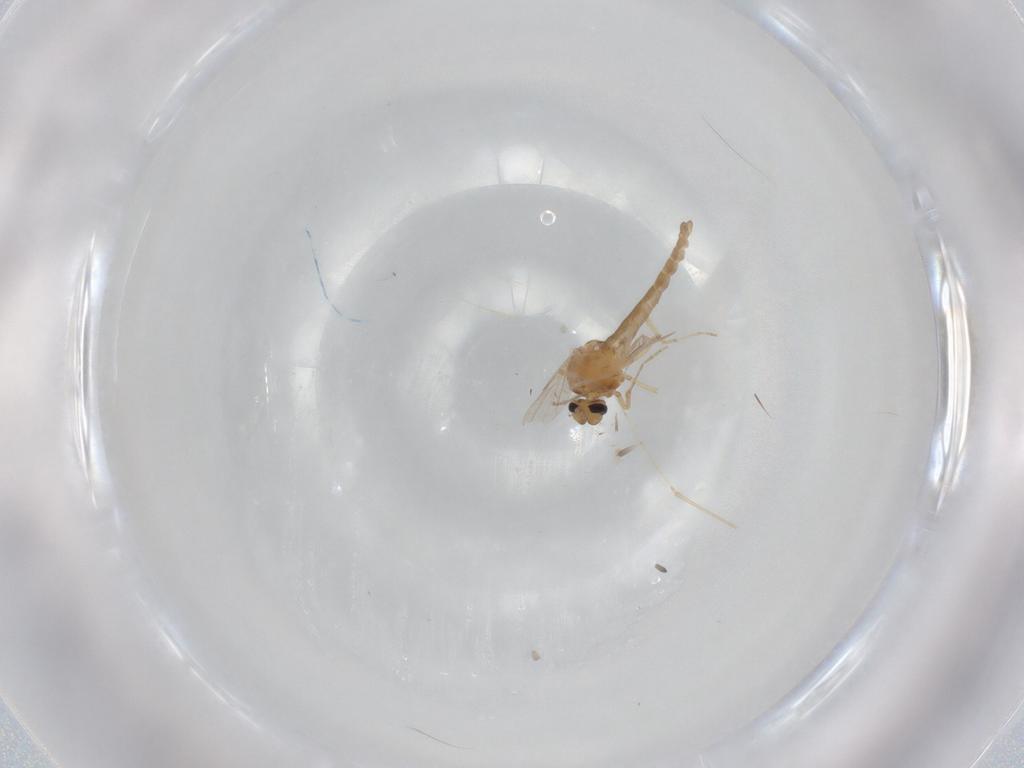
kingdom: Animalia
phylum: Arthropoda
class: Insecta
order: Diptera
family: Ceratopogonidae
